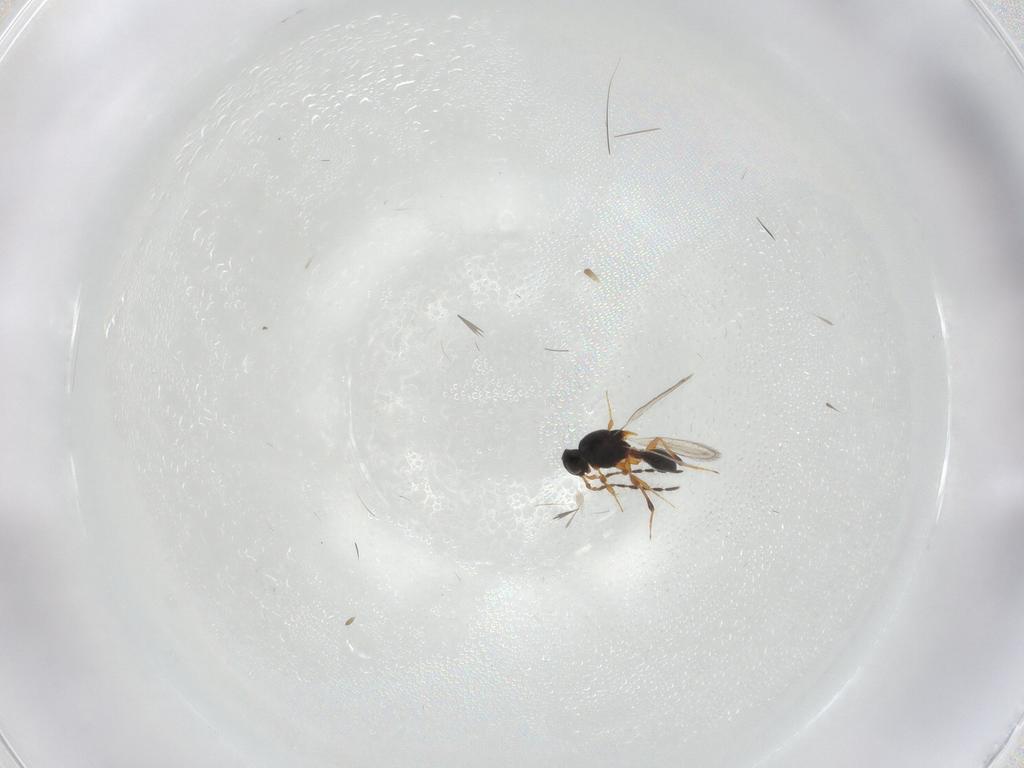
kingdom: Animalia
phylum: Arthropoda
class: Insecta
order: Hymenoptera
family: Platygastridae
